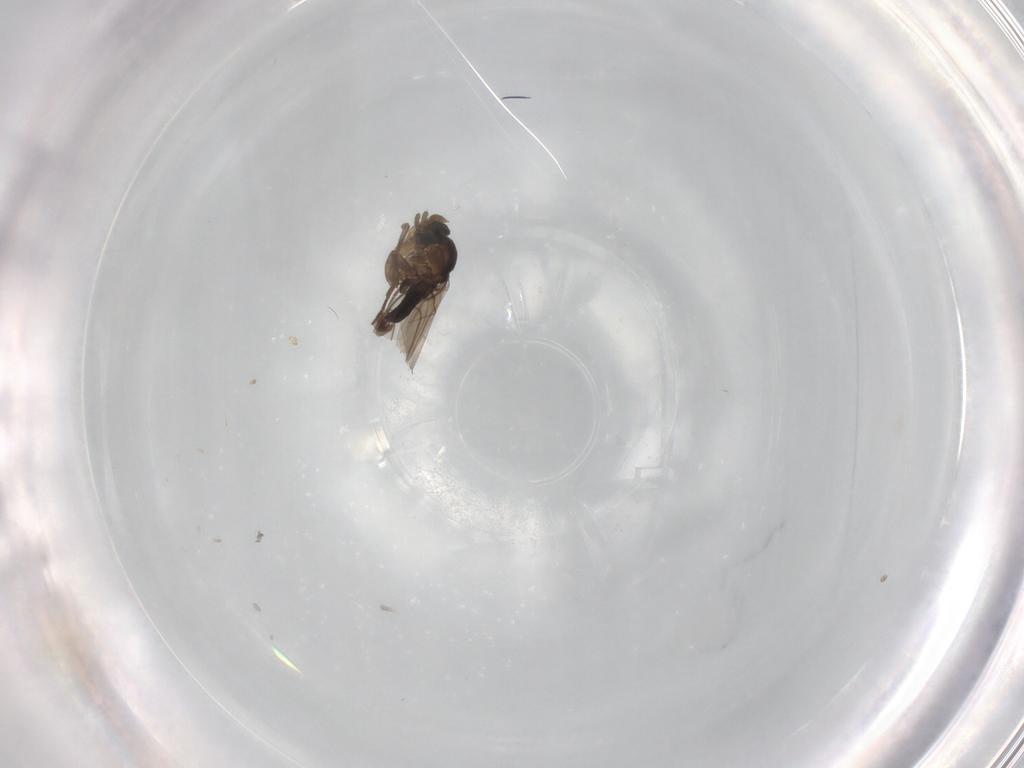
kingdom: Animalia
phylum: Arthropoda
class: Insecta
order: Diptera
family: Phoridae
